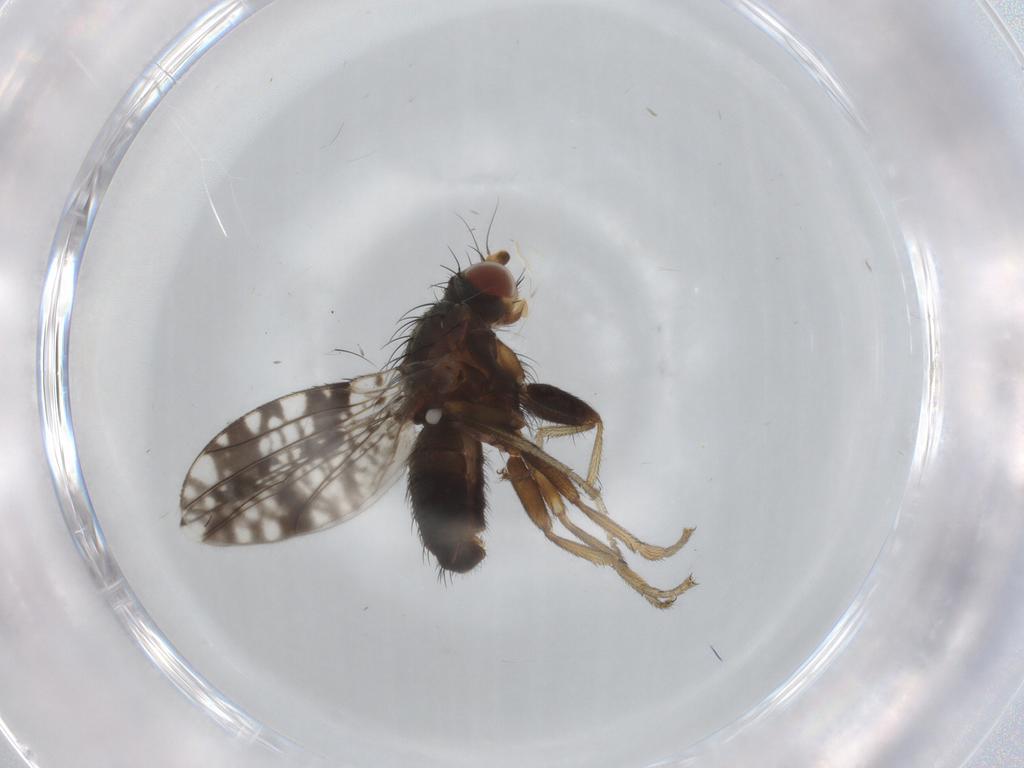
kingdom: Animalia
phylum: Arthropoda
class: Insecta
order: Diptera
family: Tephritidae
